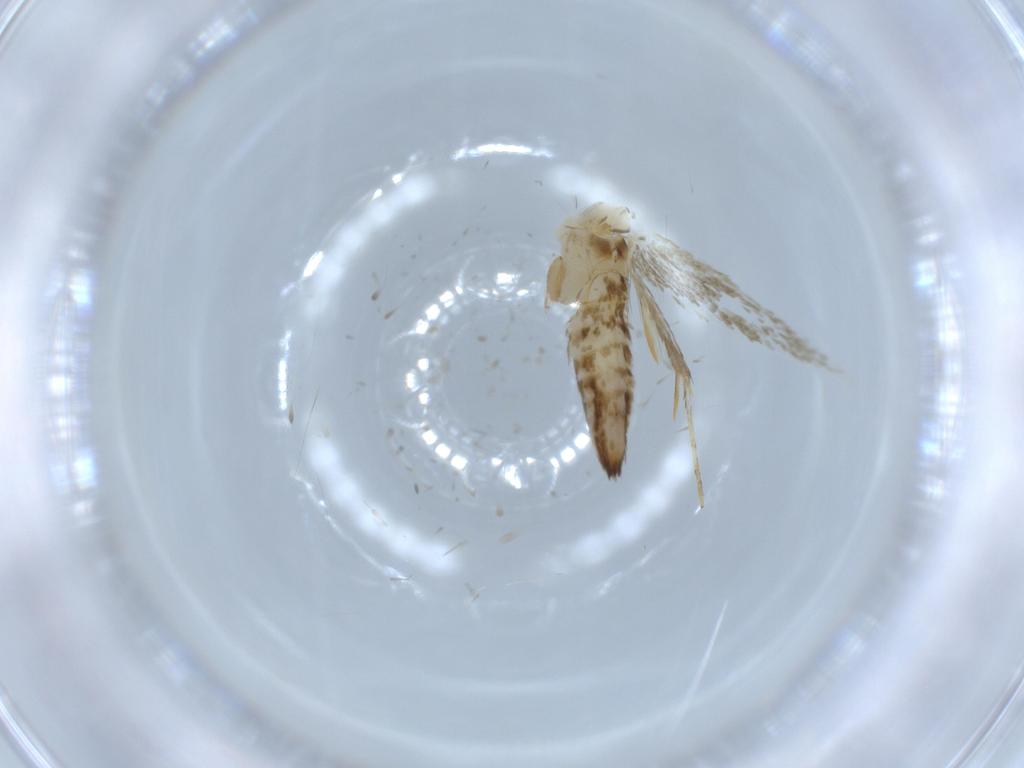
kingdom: Animalia
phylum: Arthropoda
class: Insecta
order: Lepidoptera
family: Tineidae
